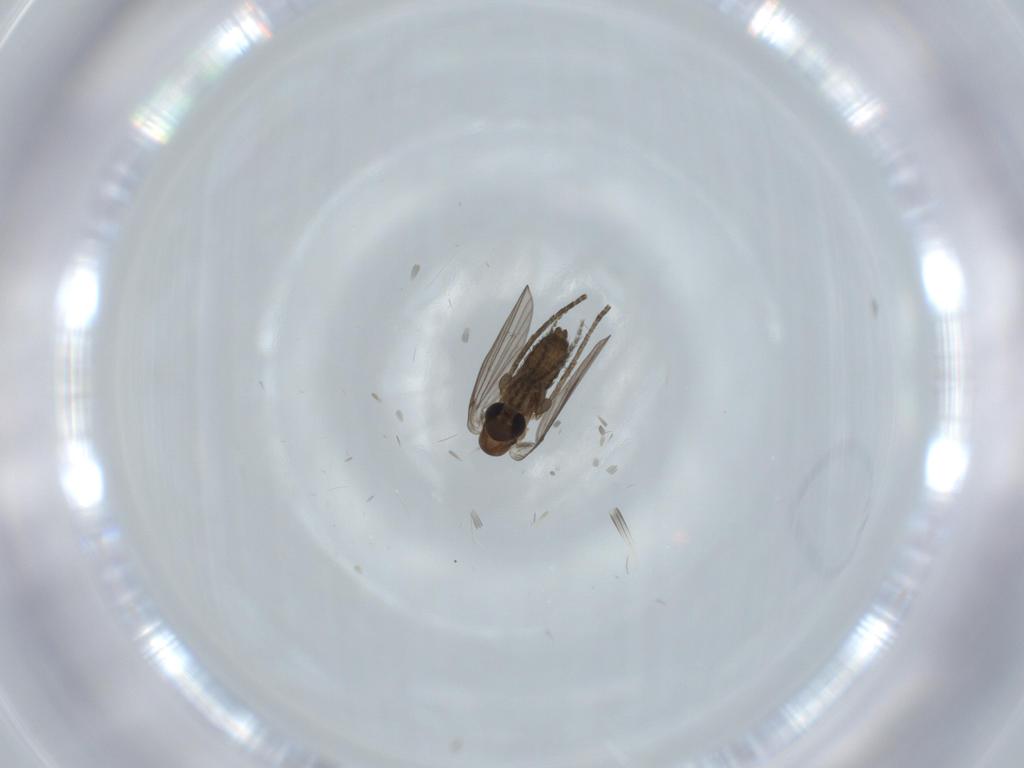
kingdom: Animalia
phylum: Arthropoda
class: Insecta
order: Diptera
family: Psychodidae
